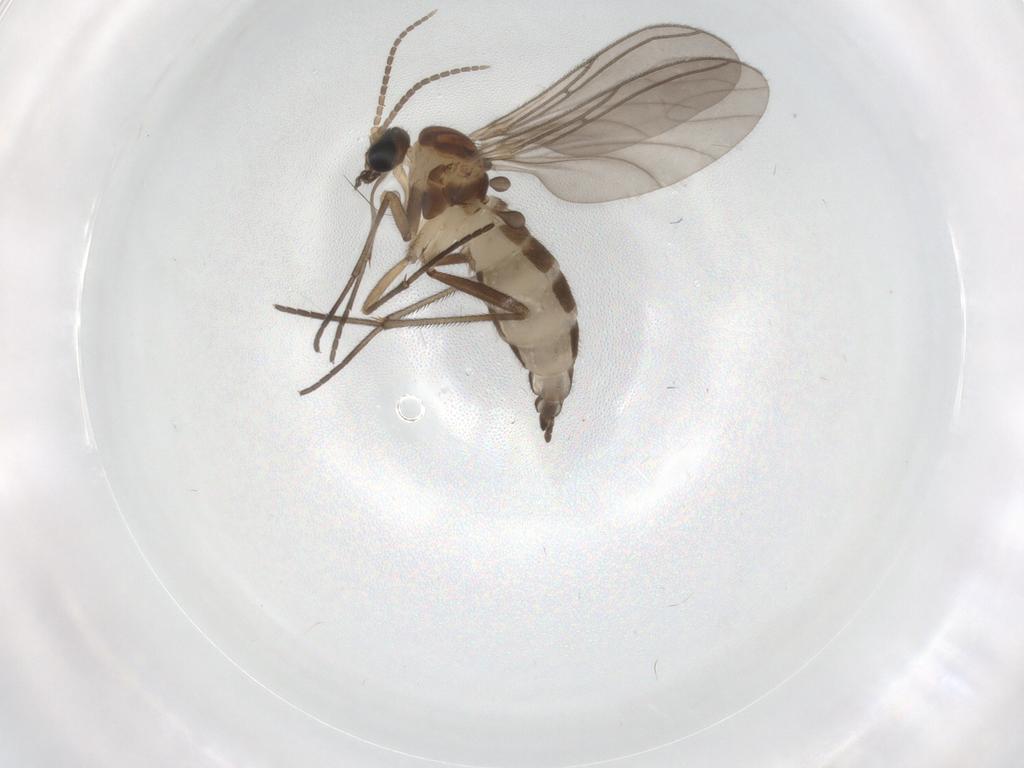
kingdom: Animalia
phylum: Arthropoda
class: Insecta
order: Diptera
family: Sciaridae
